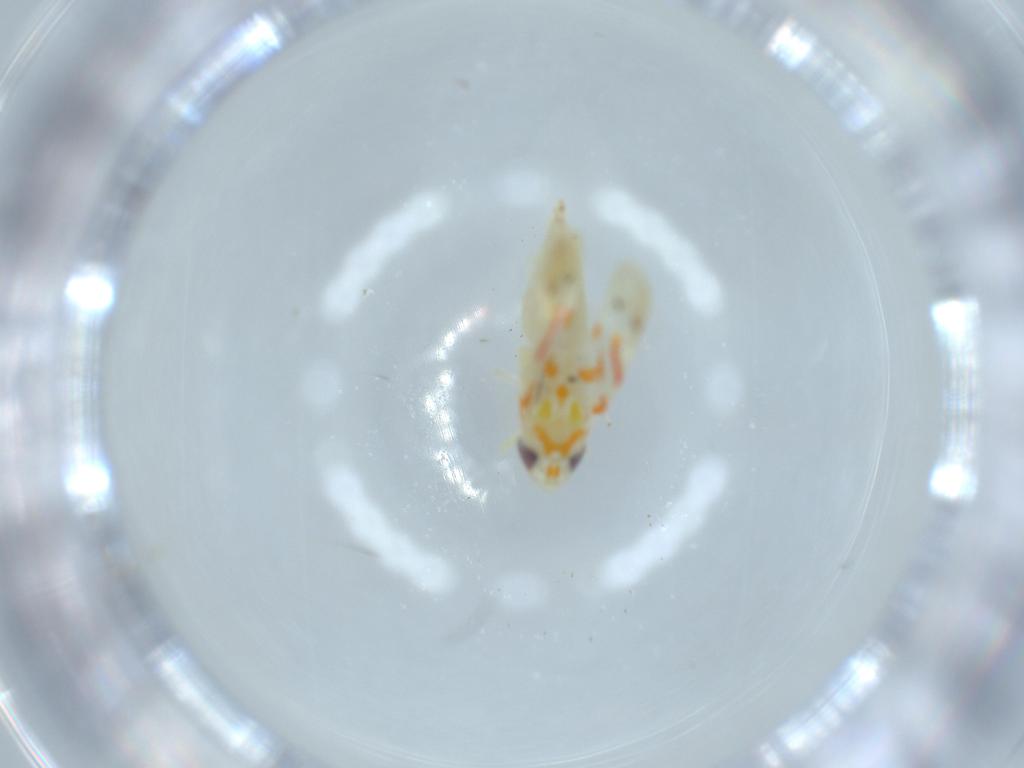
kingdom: Animalia
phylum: Arthropoda
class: Insecta
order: Hemiptera
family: Cicadellidae
